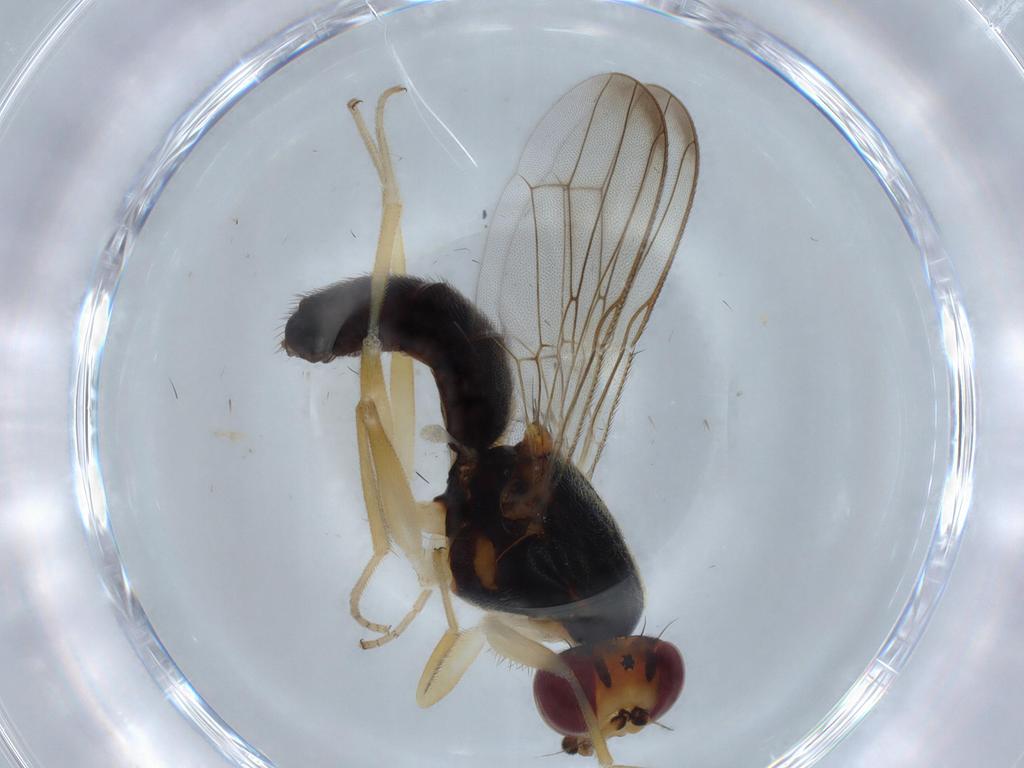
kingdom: Animalia
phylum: Arthropoda
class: Insecta
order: Diptera
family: Psilidae
